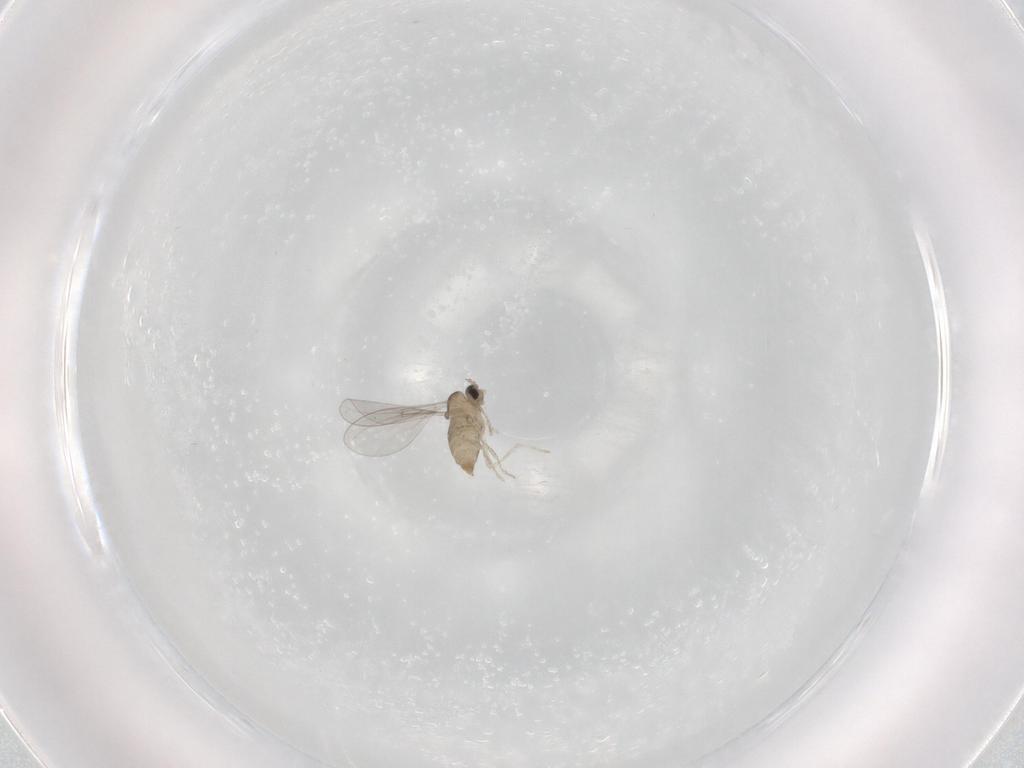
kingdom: Animalia
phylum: Arthropoda
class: Insecta
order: Diptera
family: Cecidomyiidae
